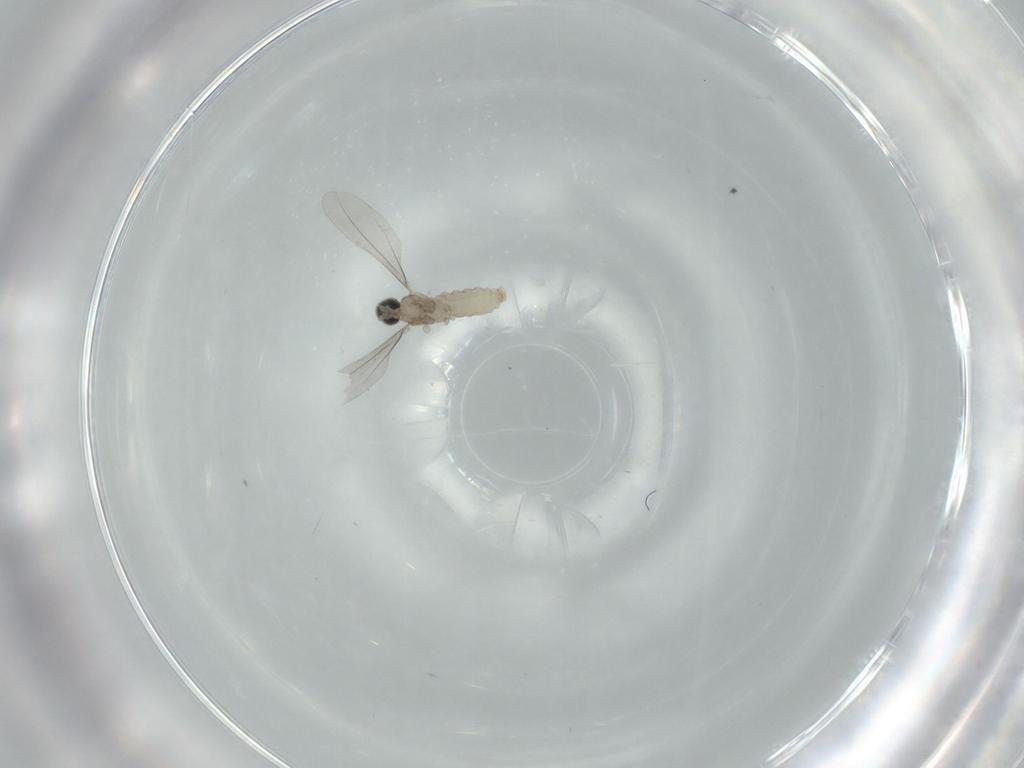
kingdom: Animalia
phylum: Arthropoda
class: Insecta
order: Diptera
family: Cecidomyiidae
